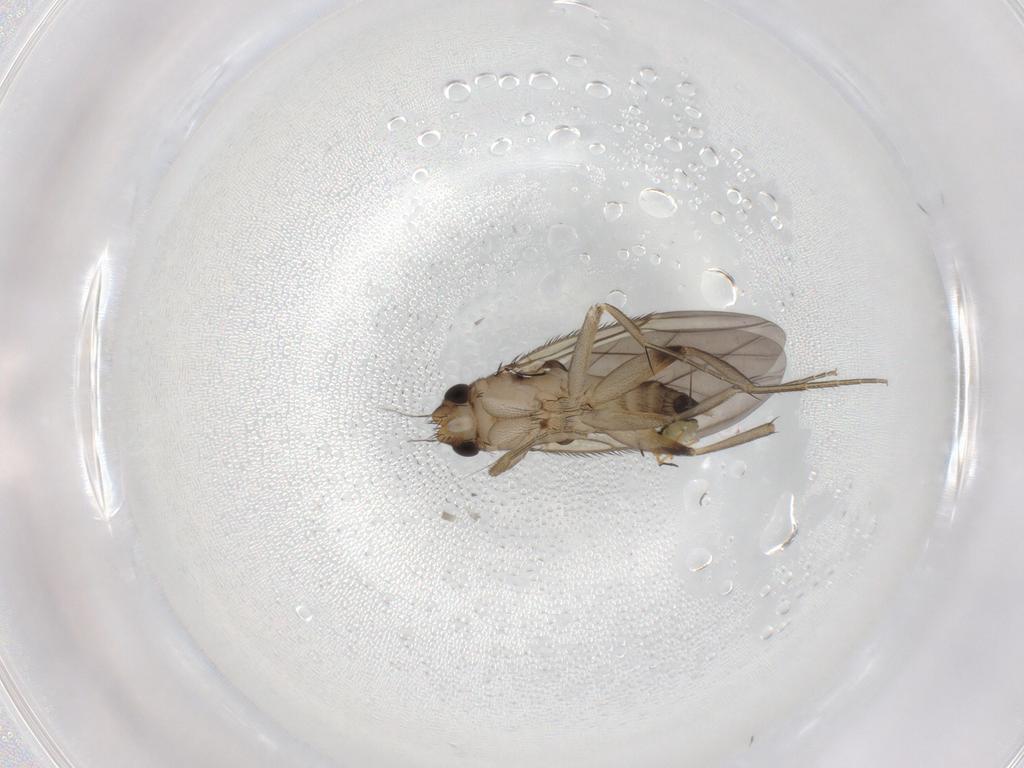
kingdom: Animalia
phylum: Arthropoda
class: Insecta
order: Diptera
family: Phoridae
